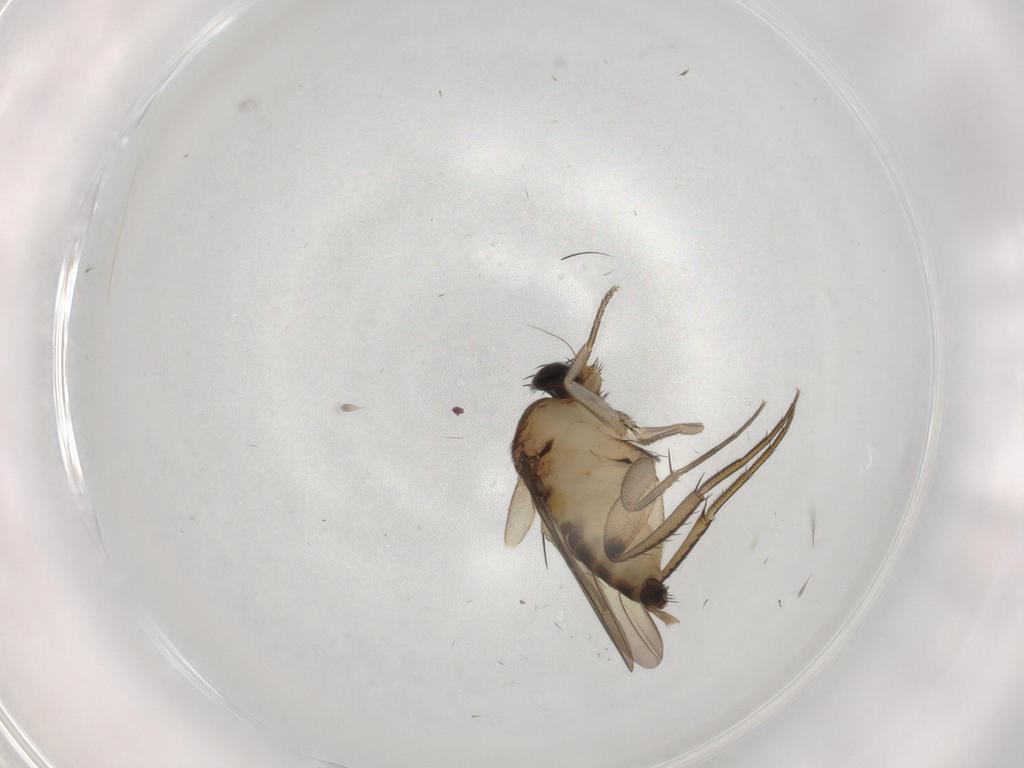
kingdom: Animalia
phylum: Arthropoda
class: Insecta
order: Diptera
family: Phoridae
